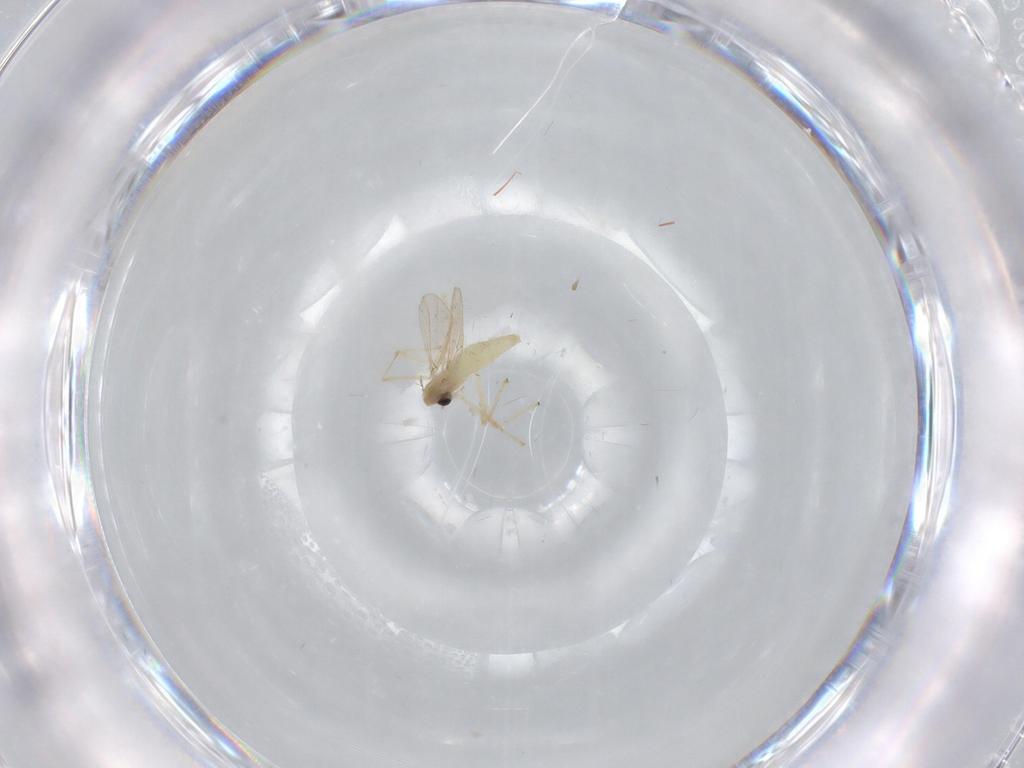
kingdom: Animalia
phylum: Arthropoda
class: Insecta
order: Diptera
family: Chironomidae
